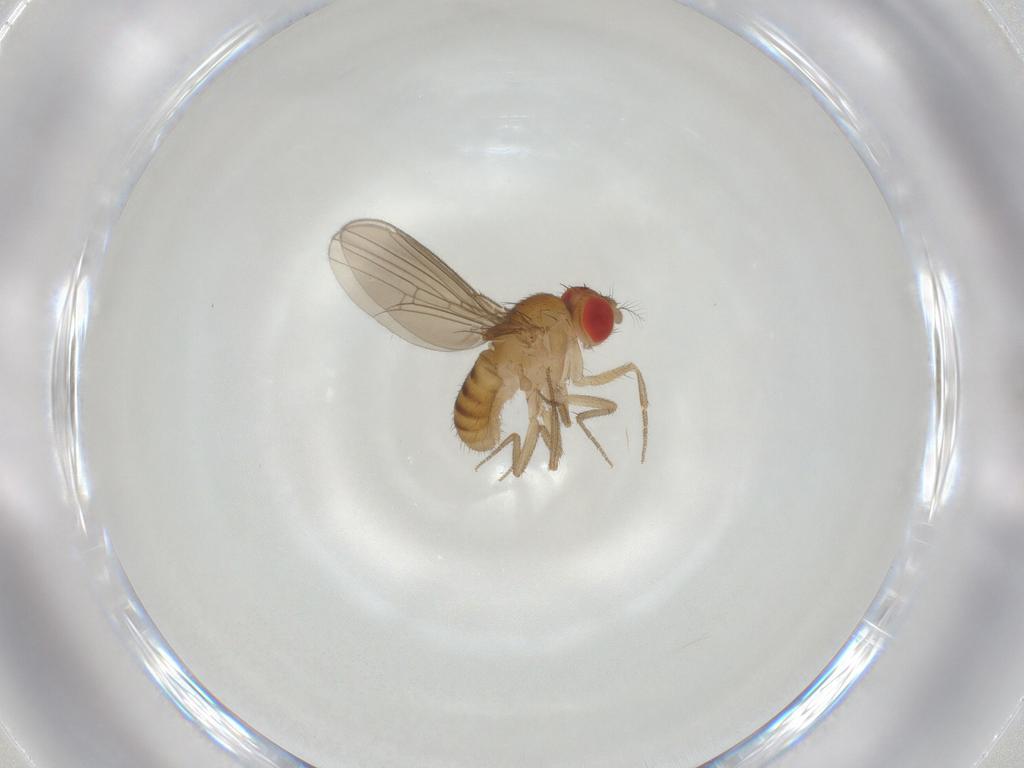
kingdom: Animalia
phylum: Arthropoda
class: Insecta
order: Diptera
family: Drosophilidae
